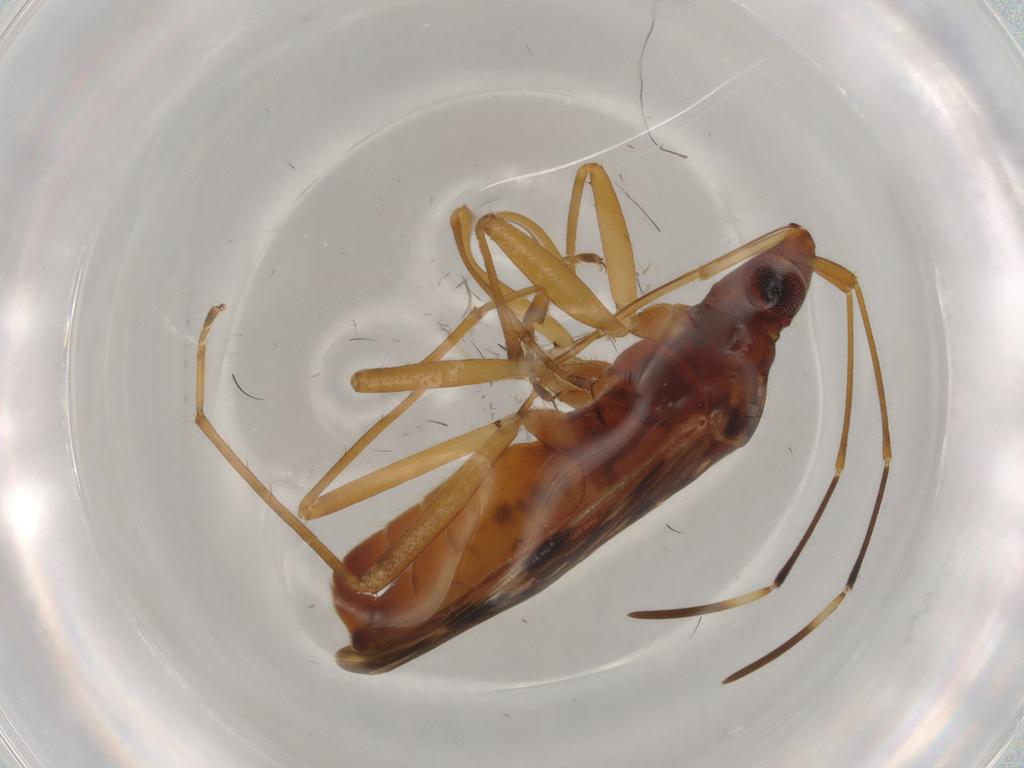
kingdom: Animalia
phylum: Arthropoda
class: Insecta
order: Hemiptera
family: Rhyparochromidae
